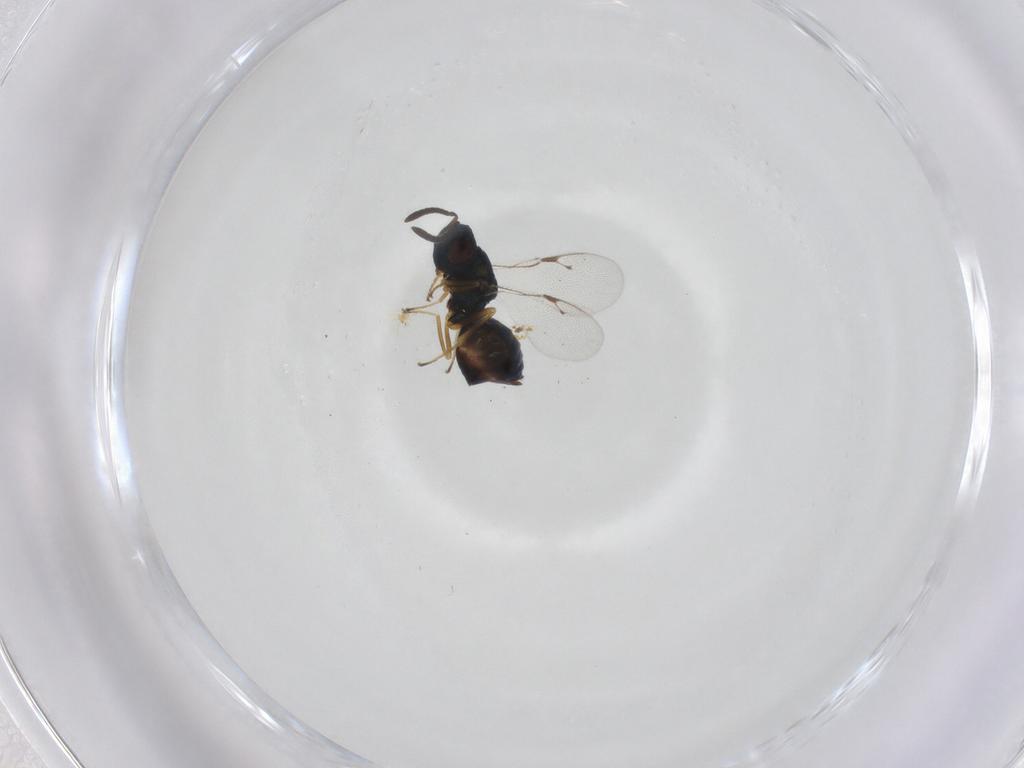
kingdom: Animalia
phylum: Arthropoda
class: Insecta
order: Hymenoptera
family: Pteromalidae
